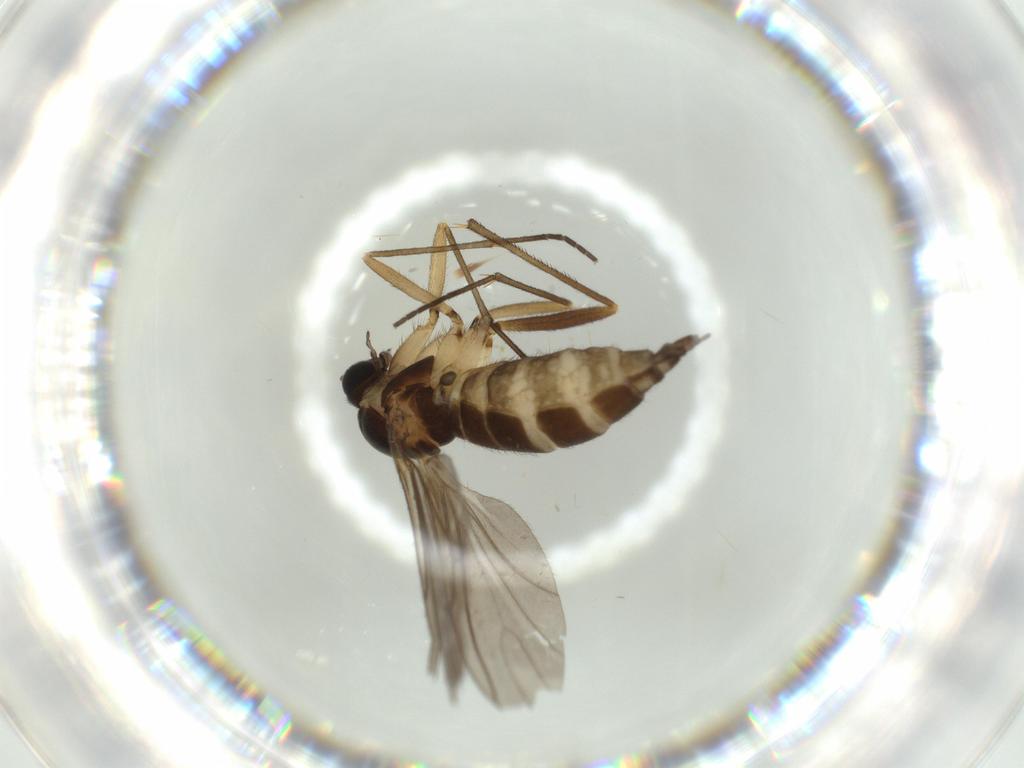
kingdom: Animalia
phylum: Arthropoda
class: Insecta
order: Diptera
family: Sciaridae
